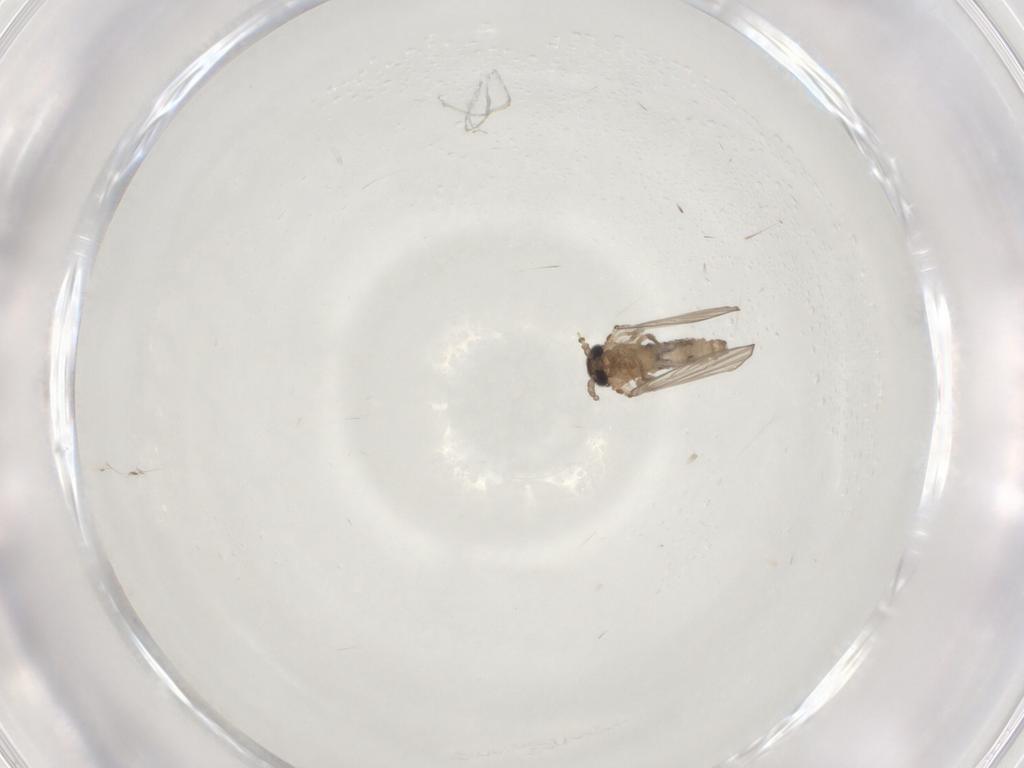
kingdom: Animalia
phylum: Arthropoda
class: Insecta
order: Diptera
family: Psychodidae
